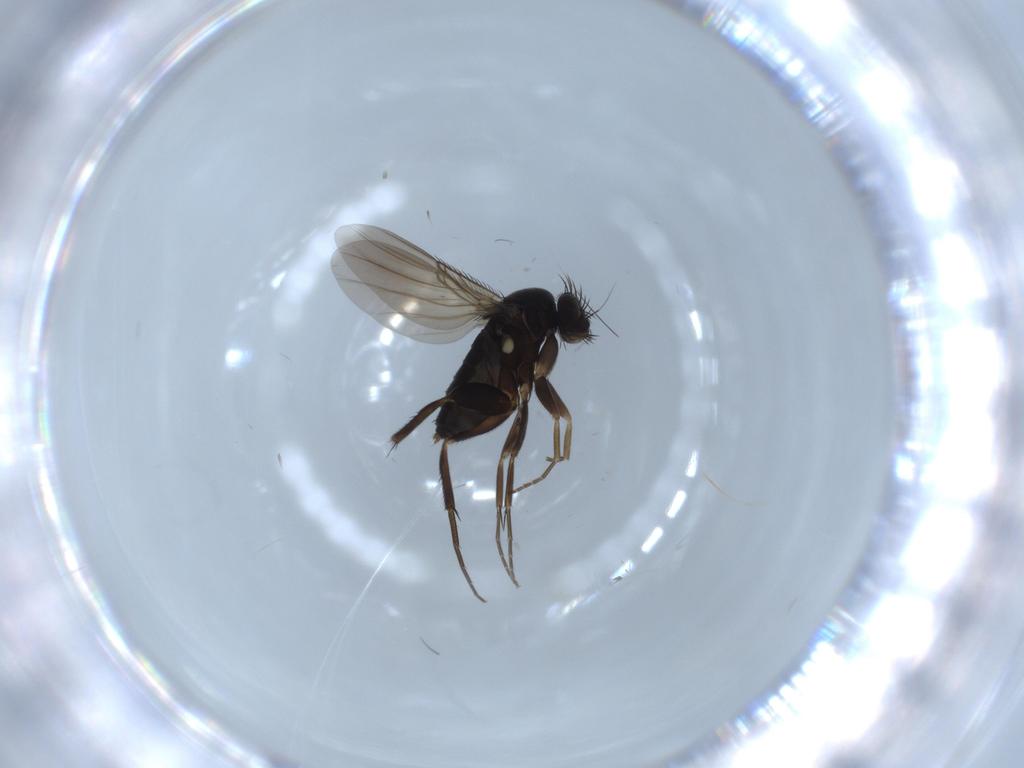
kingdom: Animalia
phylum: Arthropoda
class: Insecta
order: Diptera
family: Phoridae
